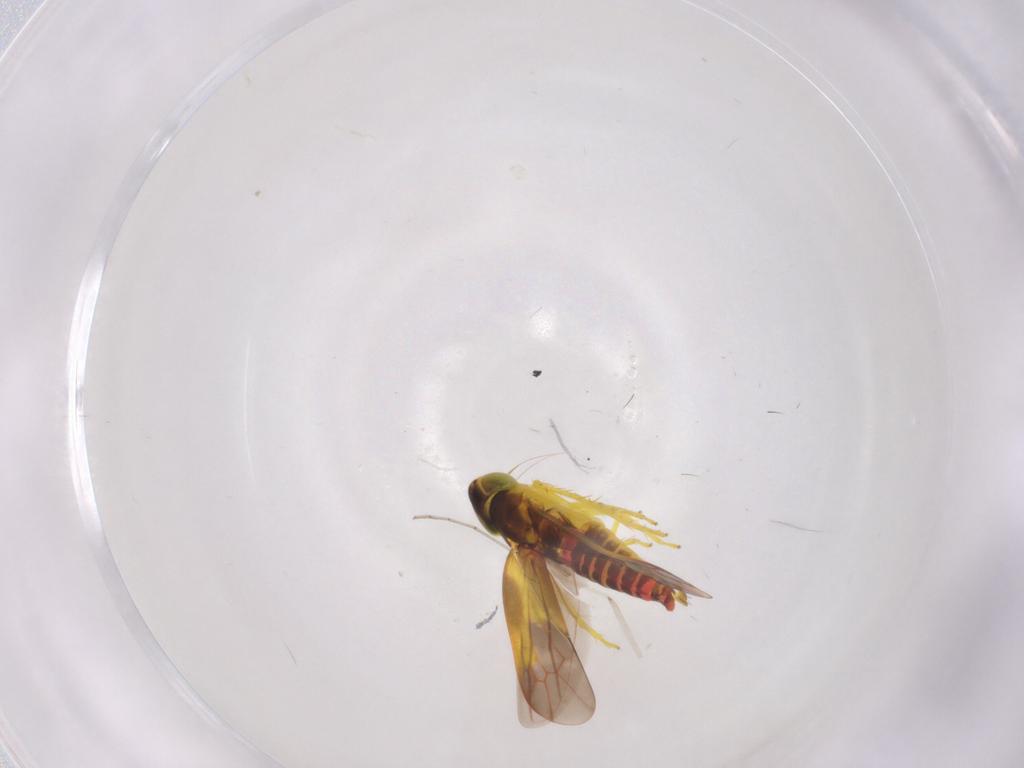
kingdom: Animalia
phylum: Arthropoda
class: Insecta
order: Hemiptera
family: Cicadellidae
